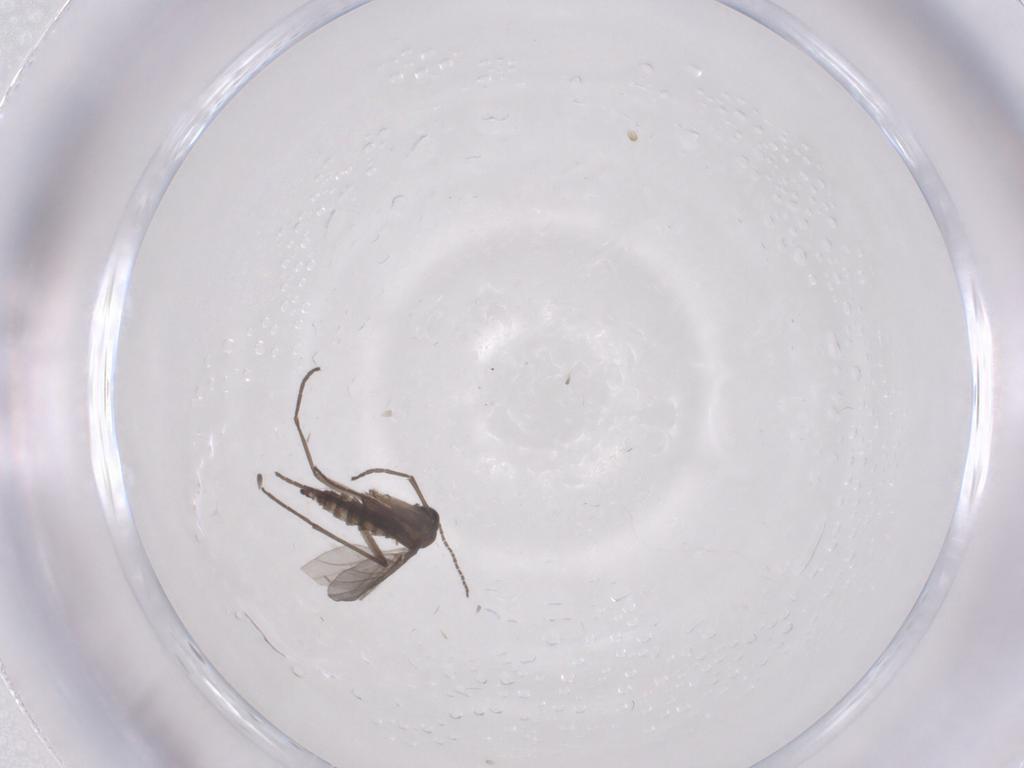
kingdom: Animalia
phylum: Arthropoda
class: Insecta
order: Diptera
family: Sciaridae
